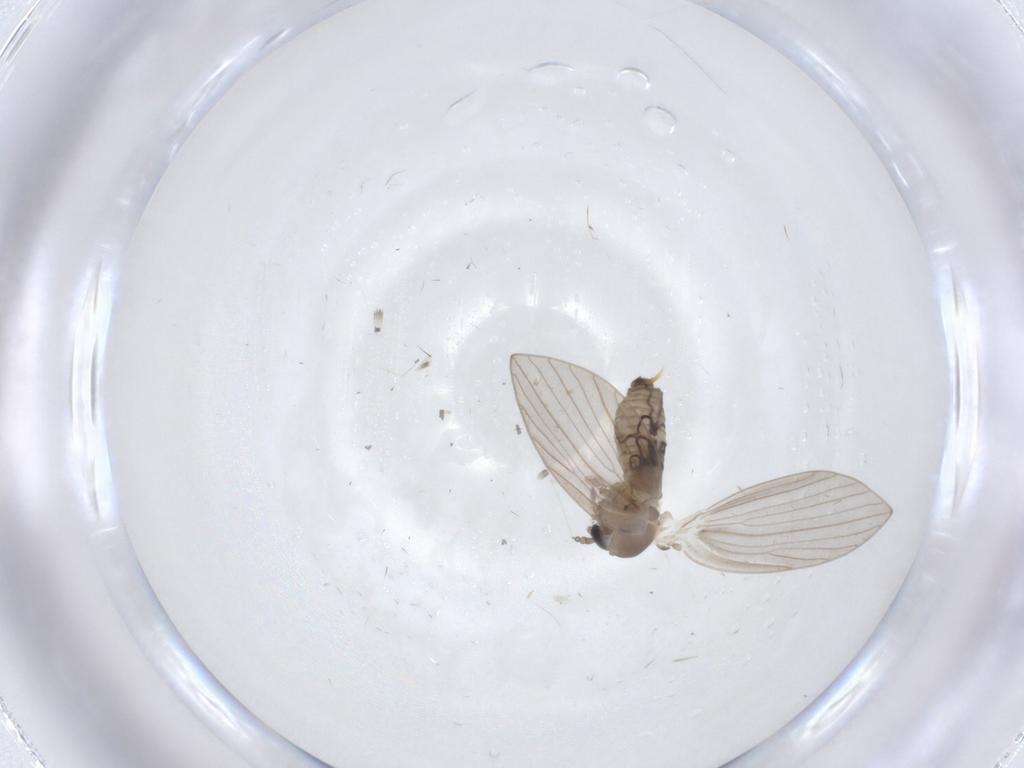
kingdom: Animalia
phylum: Arthropoda
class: Insecta
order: Diptera
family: Psychodidae
